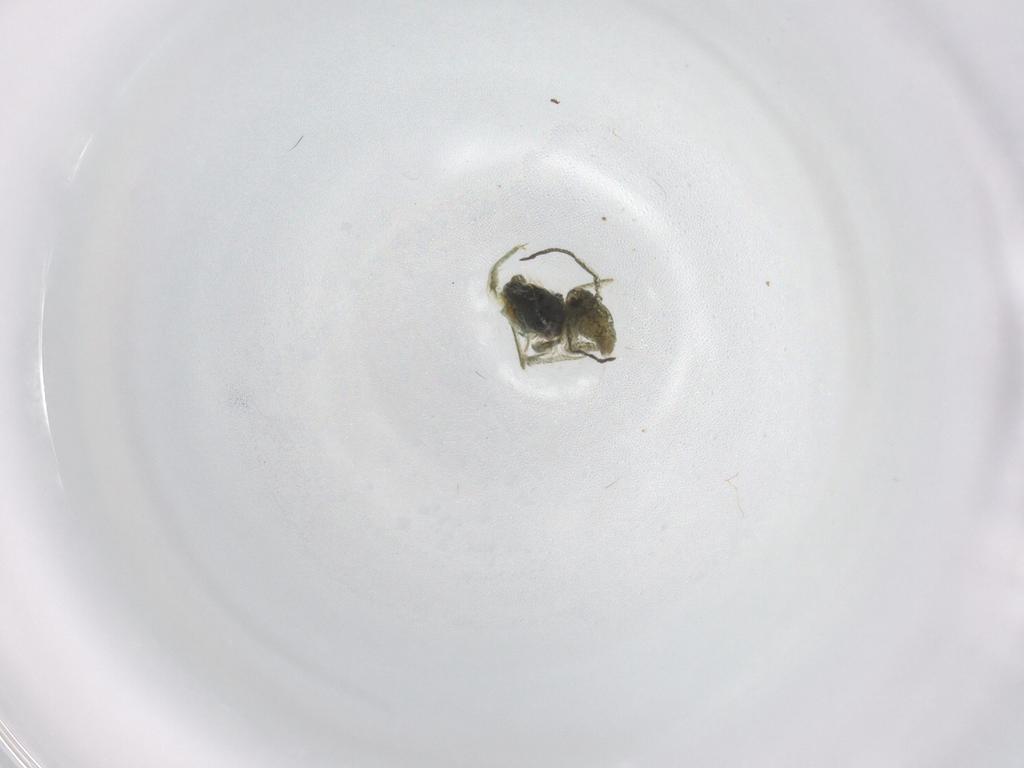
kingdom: Animalia
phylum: Arthropoda
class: Collembola
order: Symphypleona
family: Sminthuridae
